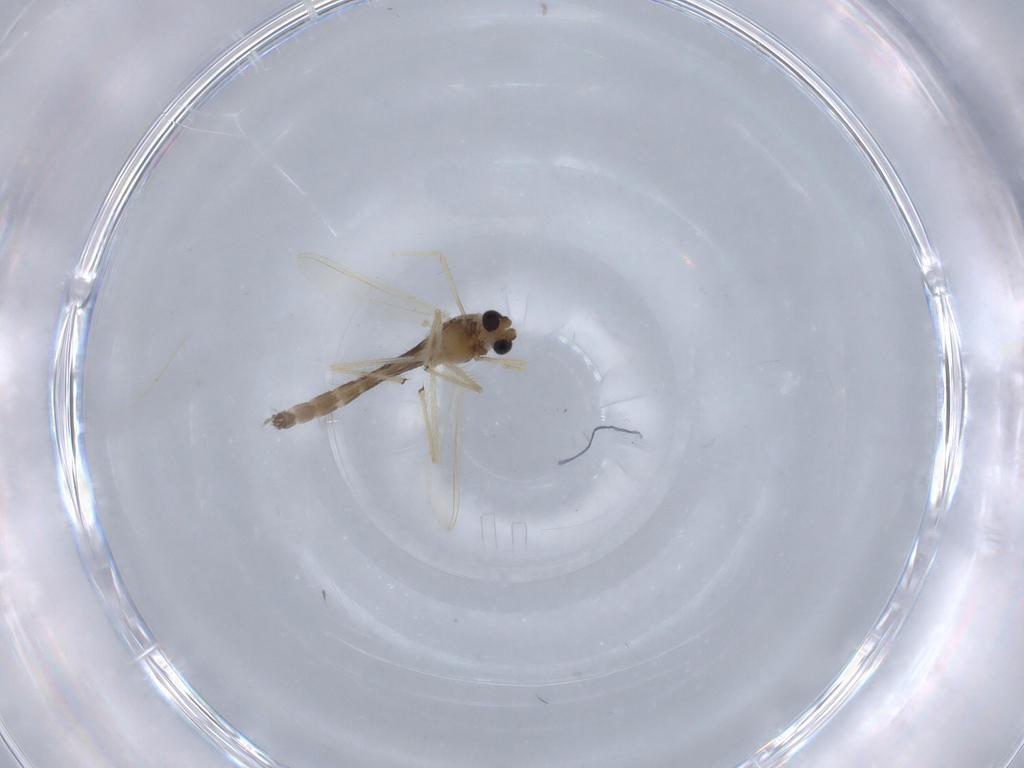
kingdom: Animalia
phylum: Arthropoda
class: Insecta
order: Diptera
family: Chironomidae
